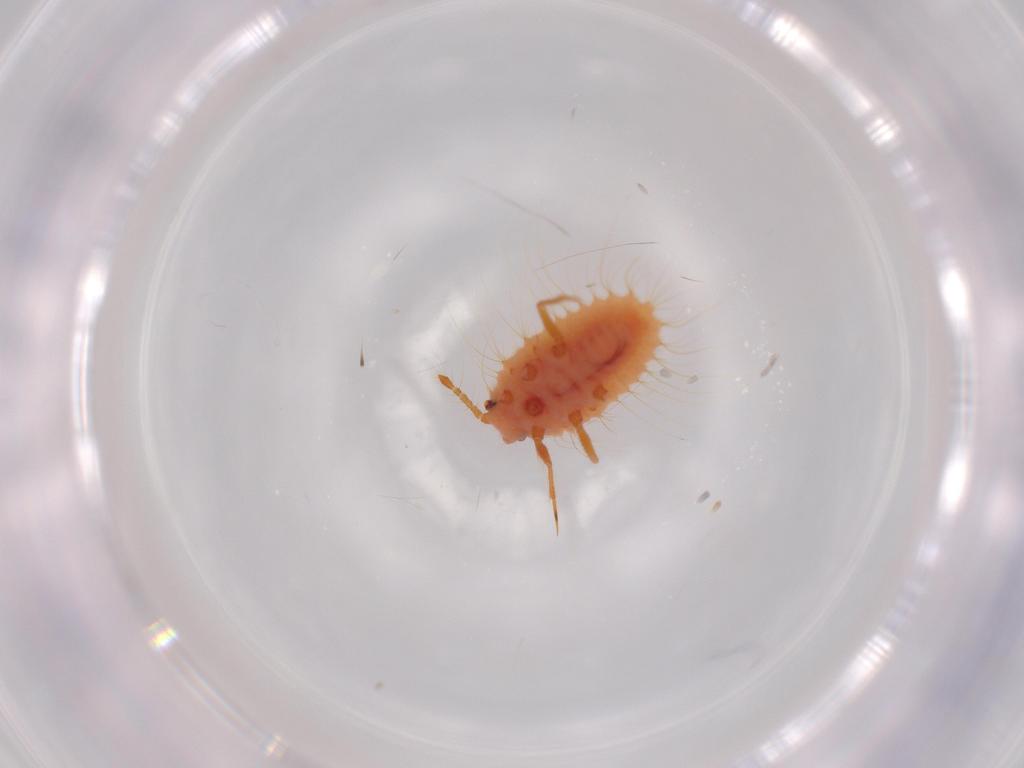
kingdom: Animalia
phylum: Arthropoda
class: Insecta
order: Hemiptera
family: Coccoidea_incertae_sedis
